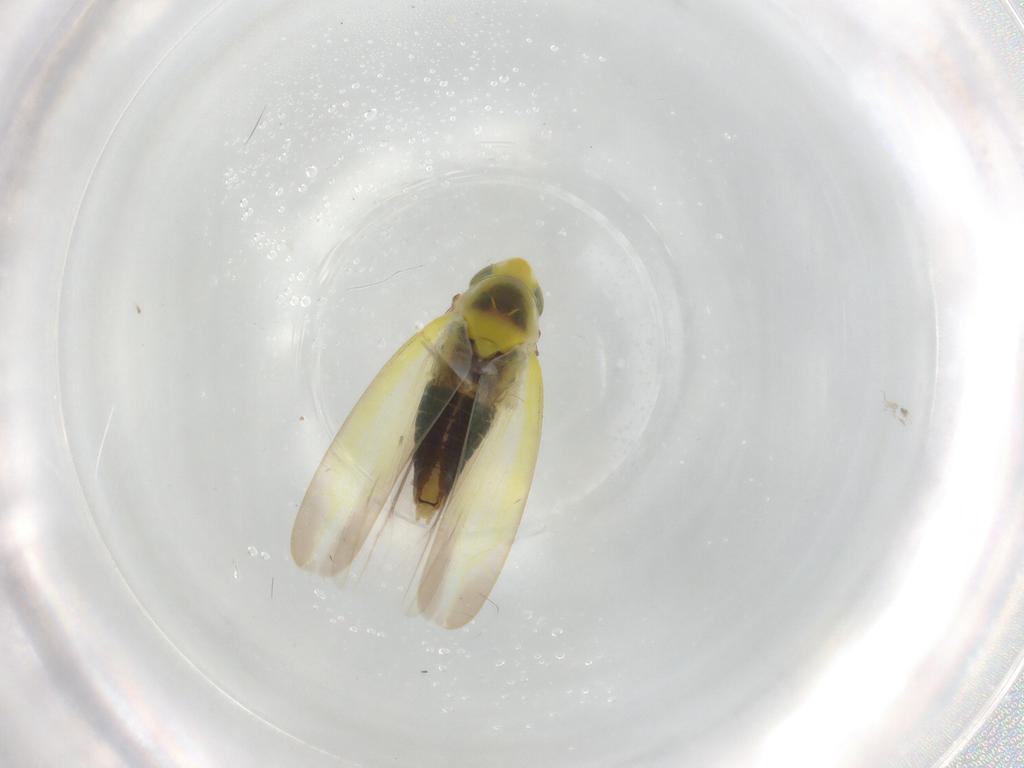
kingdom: Animalia
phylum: Arthropoda
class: Insecta
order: Hemiptera
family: Cicadellidae
